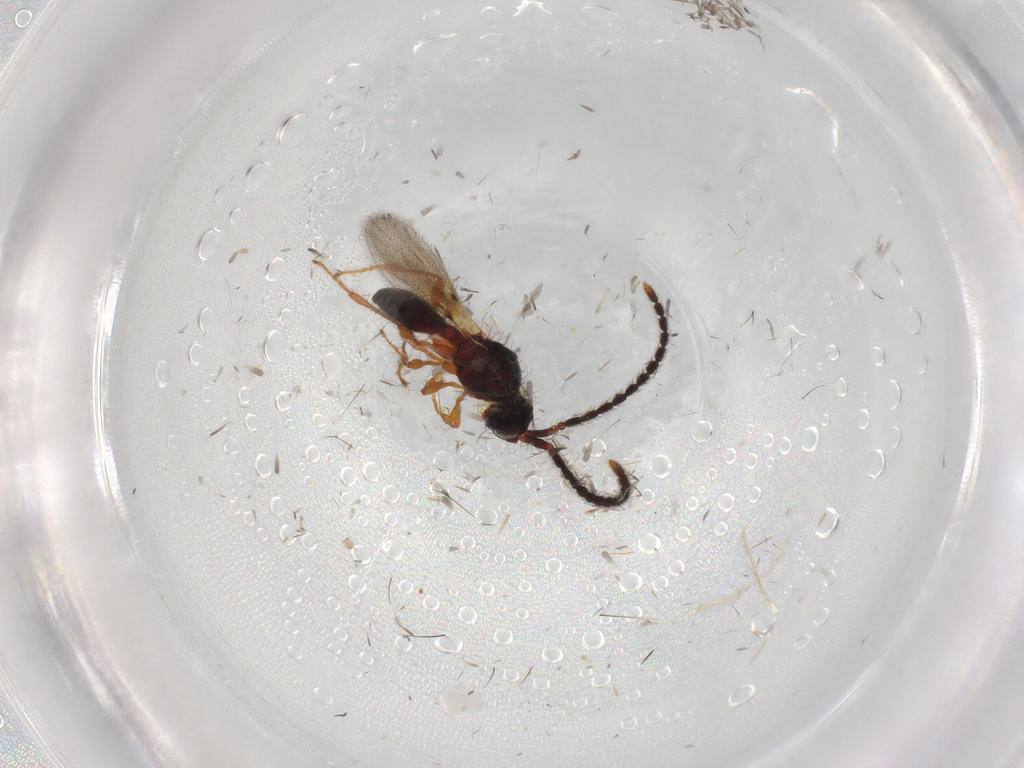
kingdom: Animalia
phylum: Arthropoda
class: Insecta
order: Hymenoptera
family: Diapriidae
